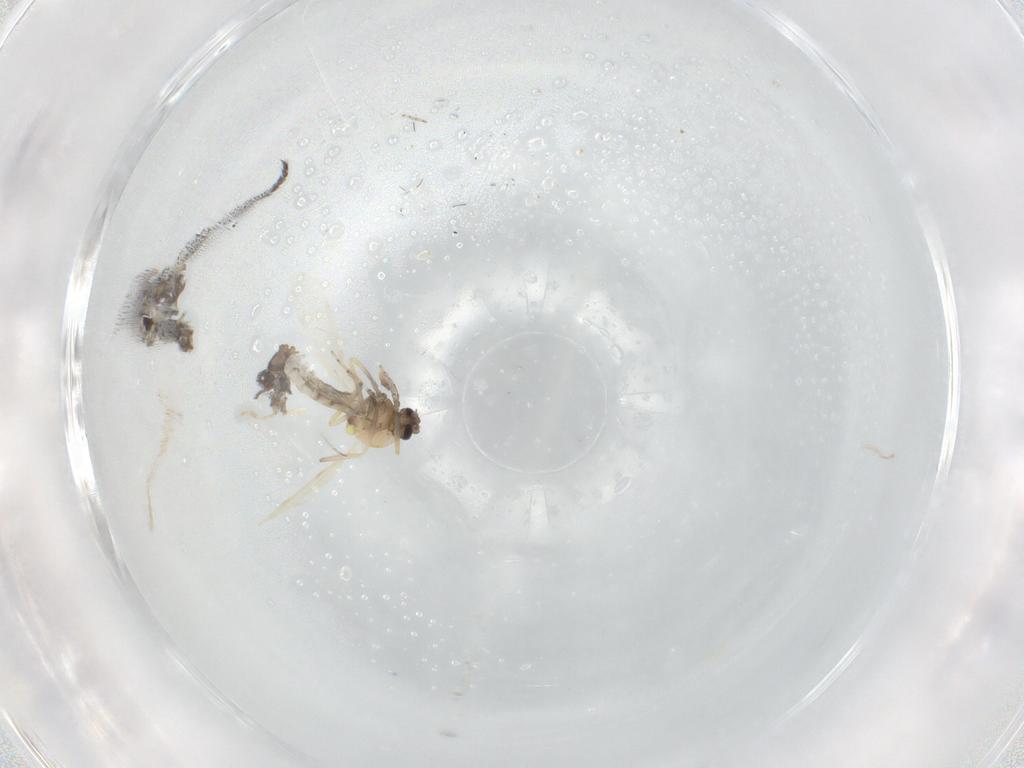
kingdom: Animalia
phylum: Arthropoda
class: Insecta
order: Diptera
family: Ceratopogonidae
